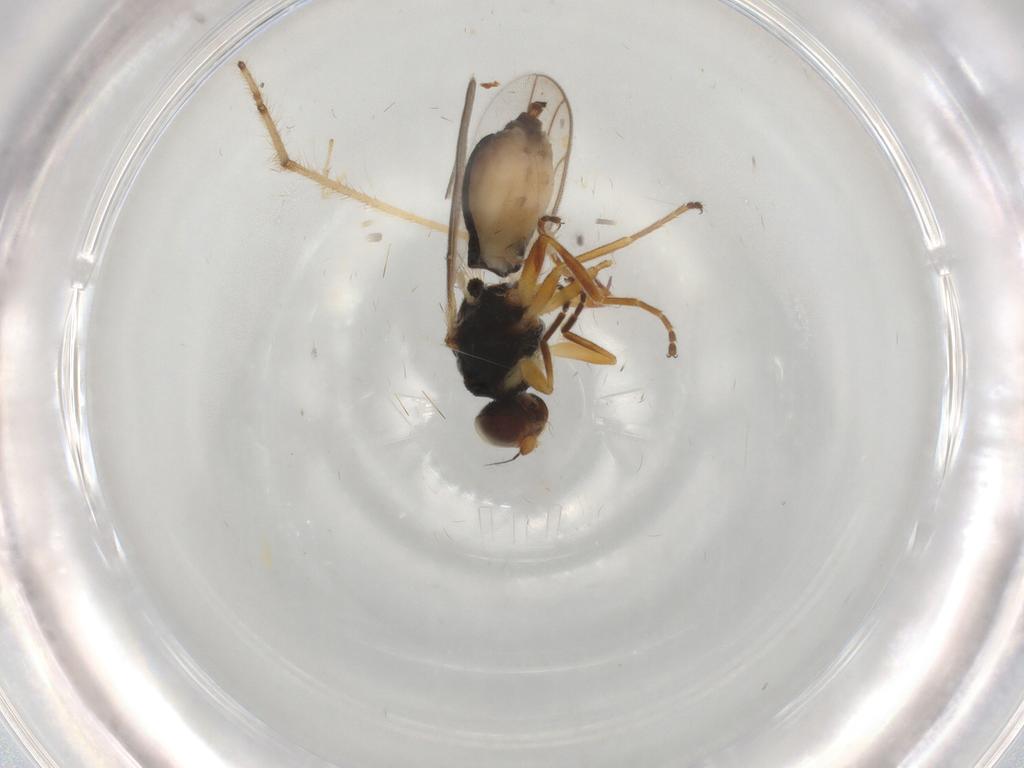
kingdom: Animalia
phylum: Arthropoda
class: Insecta
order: Diptera
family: Chloropidae
